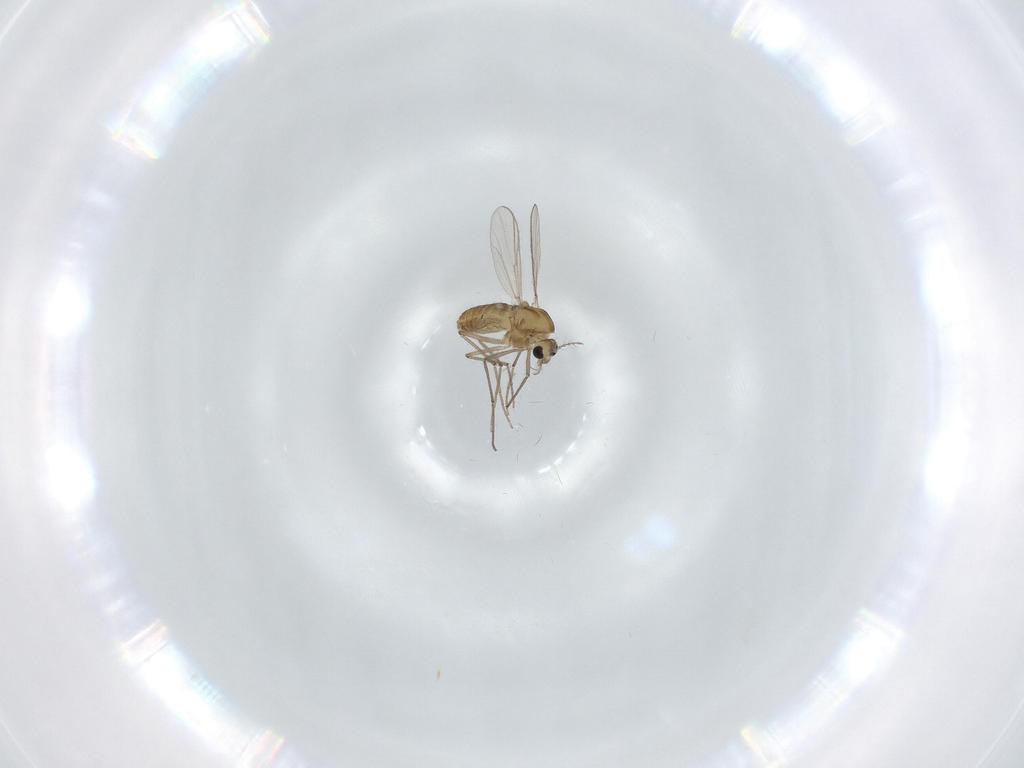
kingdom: Animalia
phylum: Arthropoda
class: Insecta
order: Diptera
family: Chironomidae
